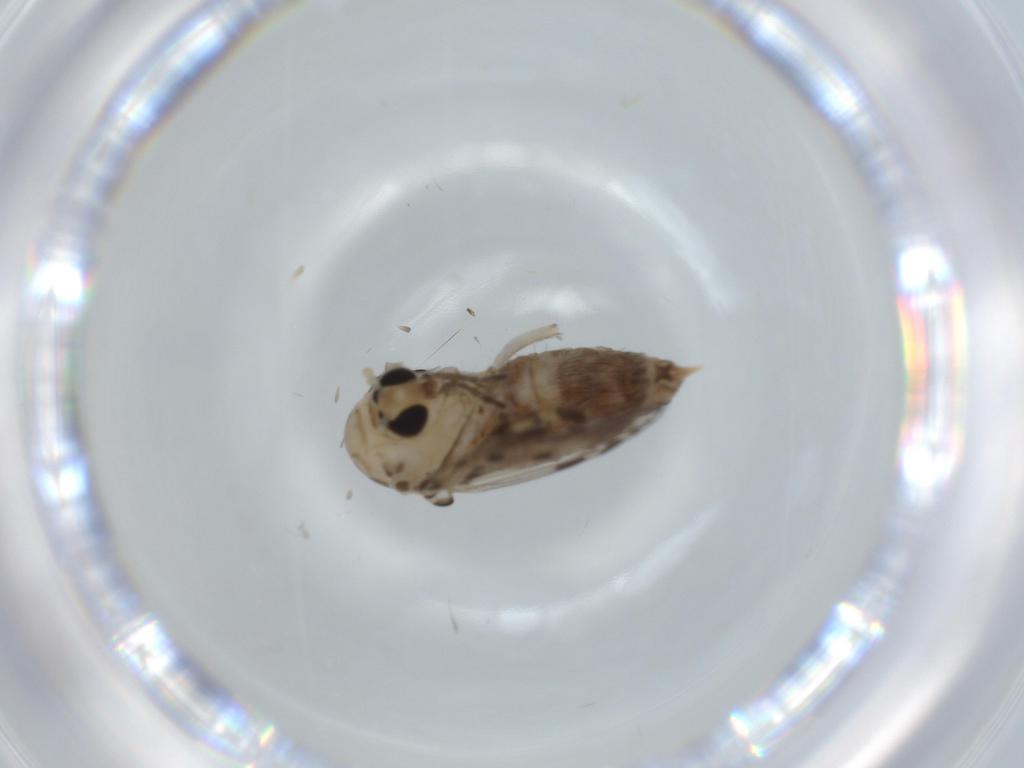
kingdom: Animalia
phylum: Arthropoda
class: Insecta
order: Diptera
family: Psychodidae
